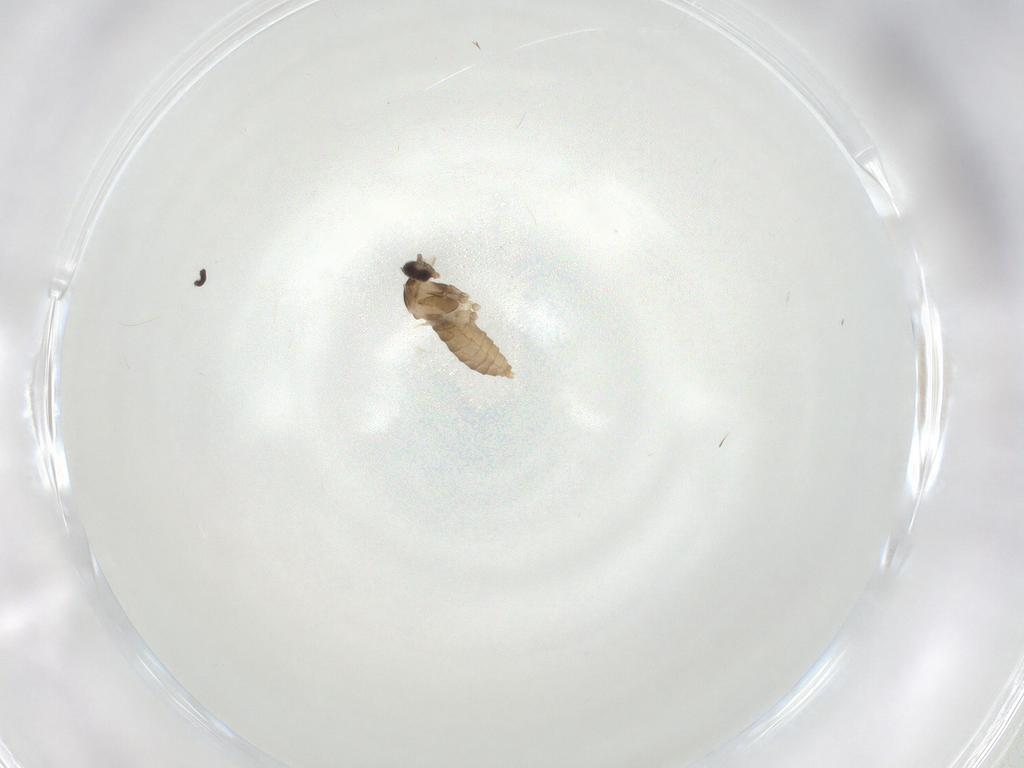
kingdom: Animalia
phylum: Arthropoda
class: Insecta
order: Diptera
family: Cecidomyiidae
